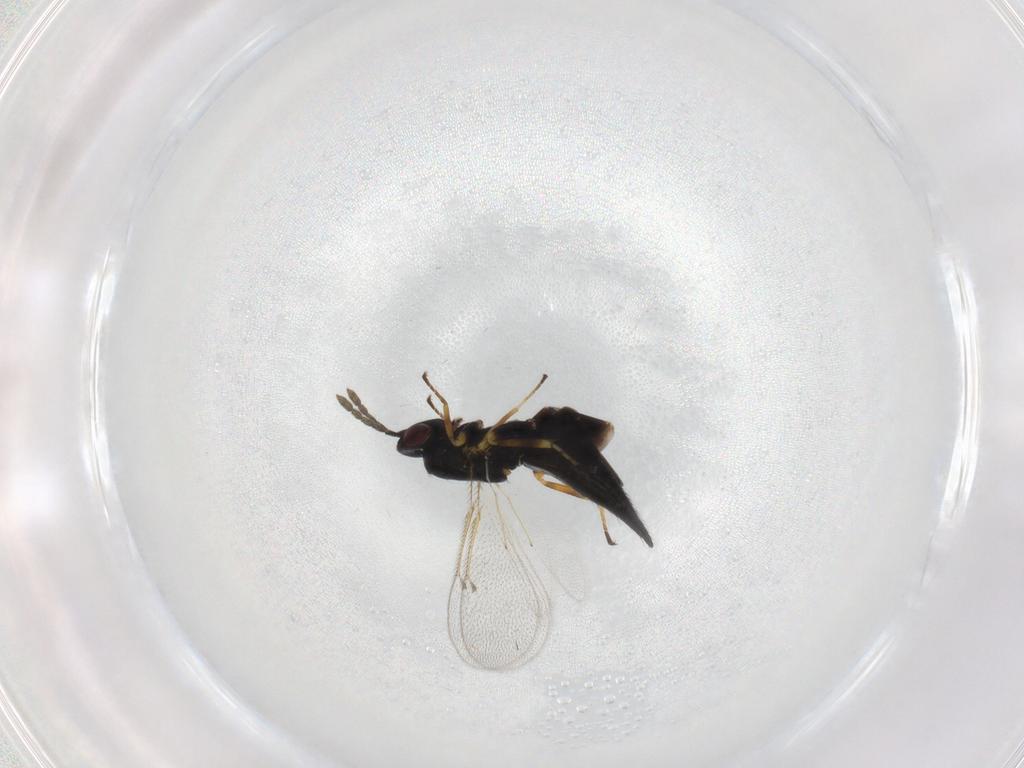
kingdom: Animalia
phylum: Arthropoda
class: Insecta
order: Hymenoptera
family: Eulophidae
